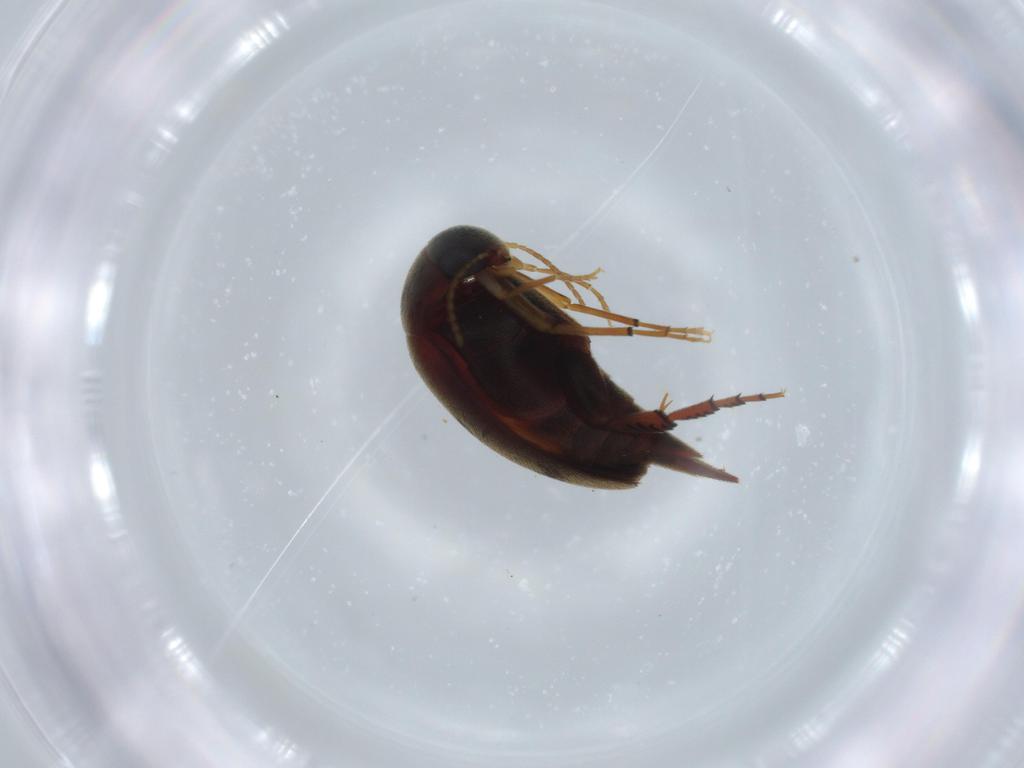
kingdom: Animalia
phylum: Arthropoda
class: Insecta
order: Coleoptera
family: Mordellidae
